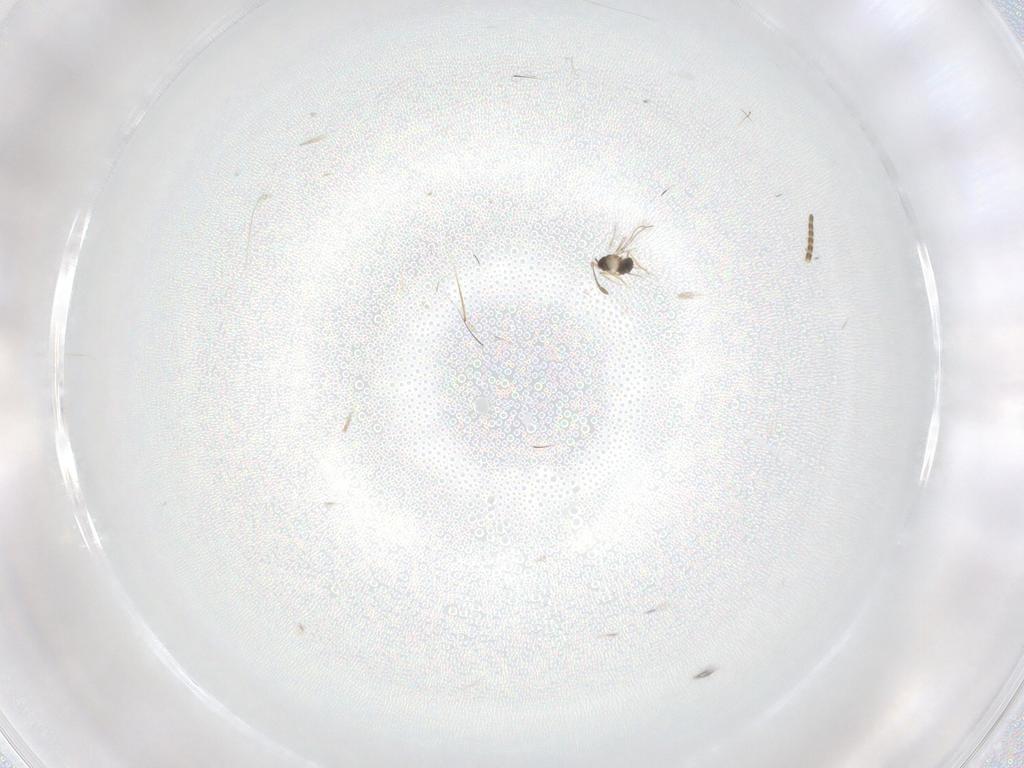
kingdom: Animalia
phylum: Arthropoda
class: Insecta
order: Hymenoptera
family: Mymaridae
